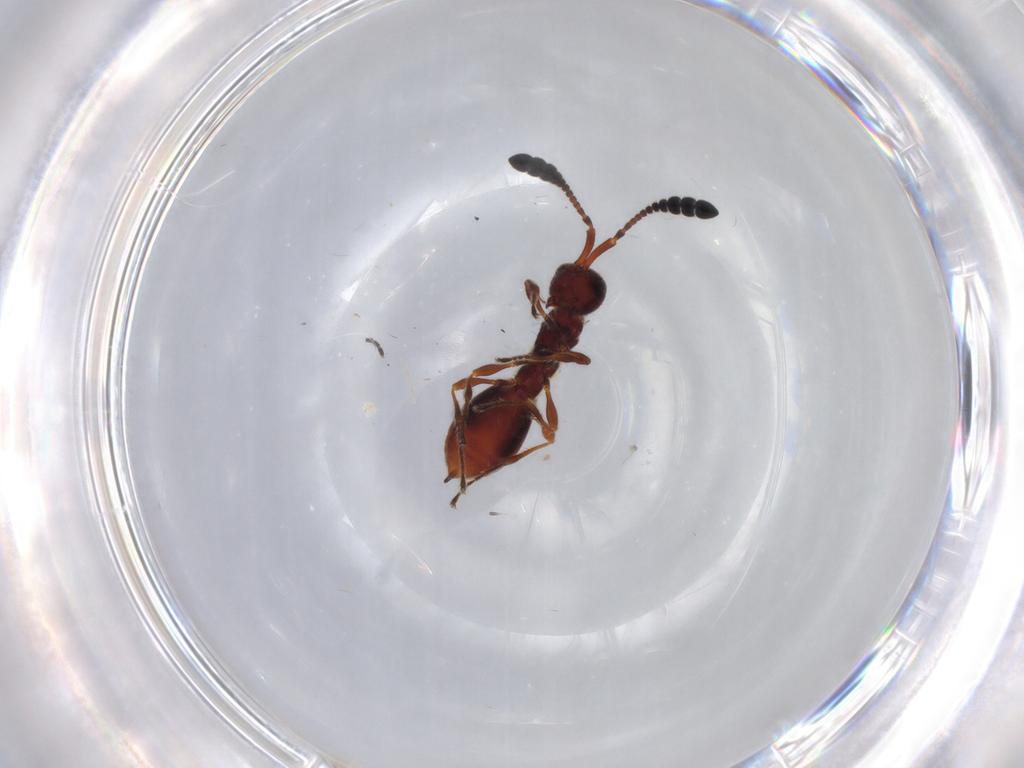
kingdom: Animalia
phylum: Arthropoda
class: Insecta
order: Hymenoptera
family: Diapriidae
